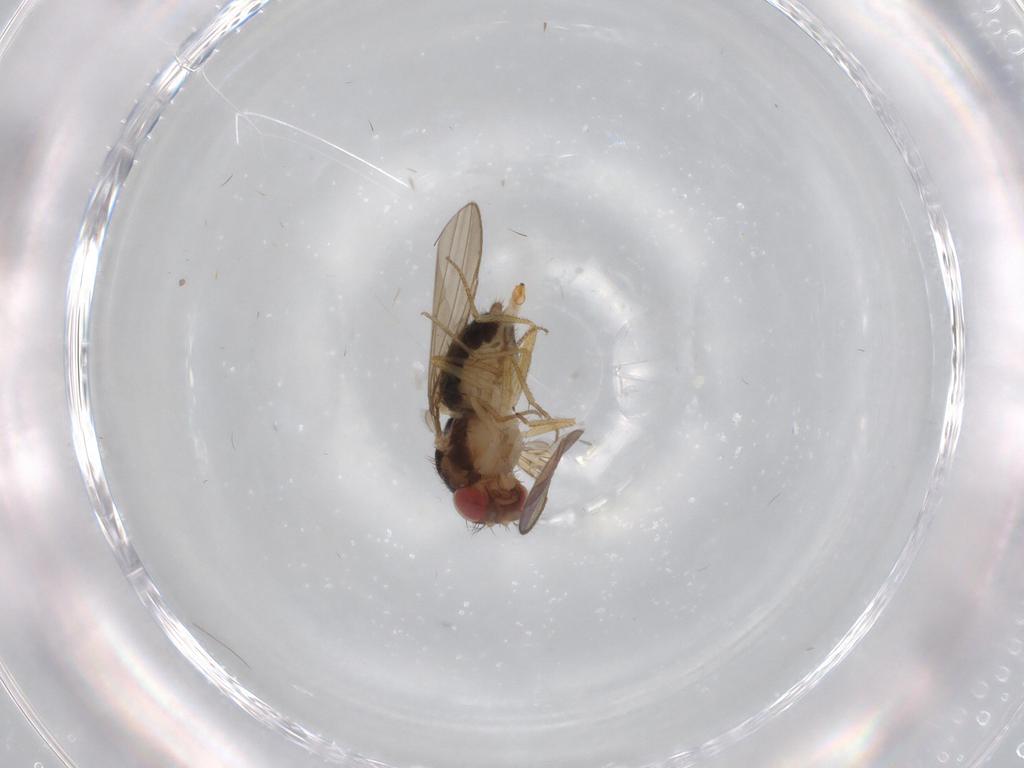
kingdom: Animalia
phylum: Arthropoda
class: Insecta
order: Diptera
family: Drosophilidae
